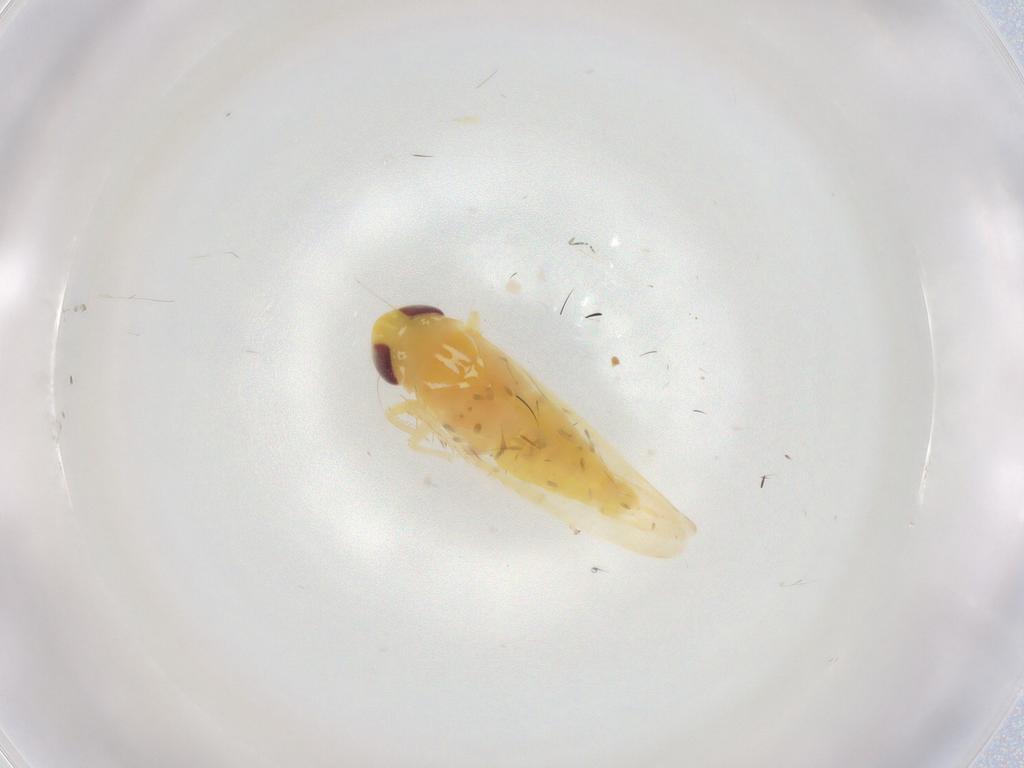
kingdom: Animalia
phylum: Arthropoda
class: Insecta
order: Hemiptera
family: Cicadellidae
